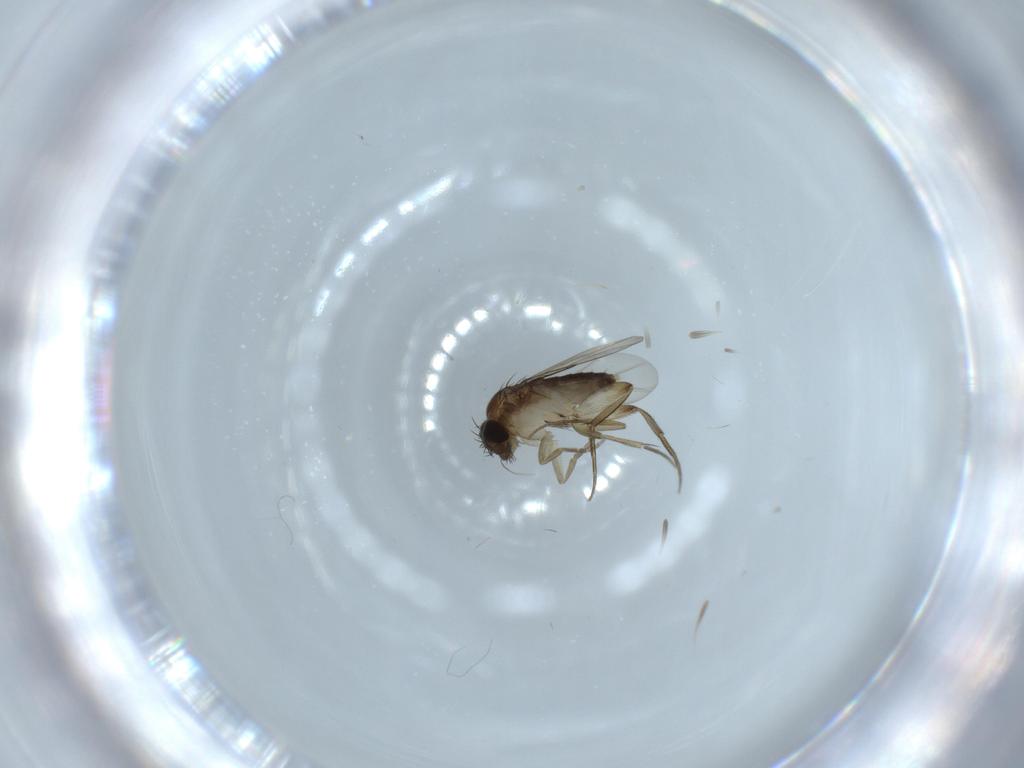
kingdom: Animalia
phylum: Arthropoda
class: Insecta
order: Diptera
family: Phoridae
